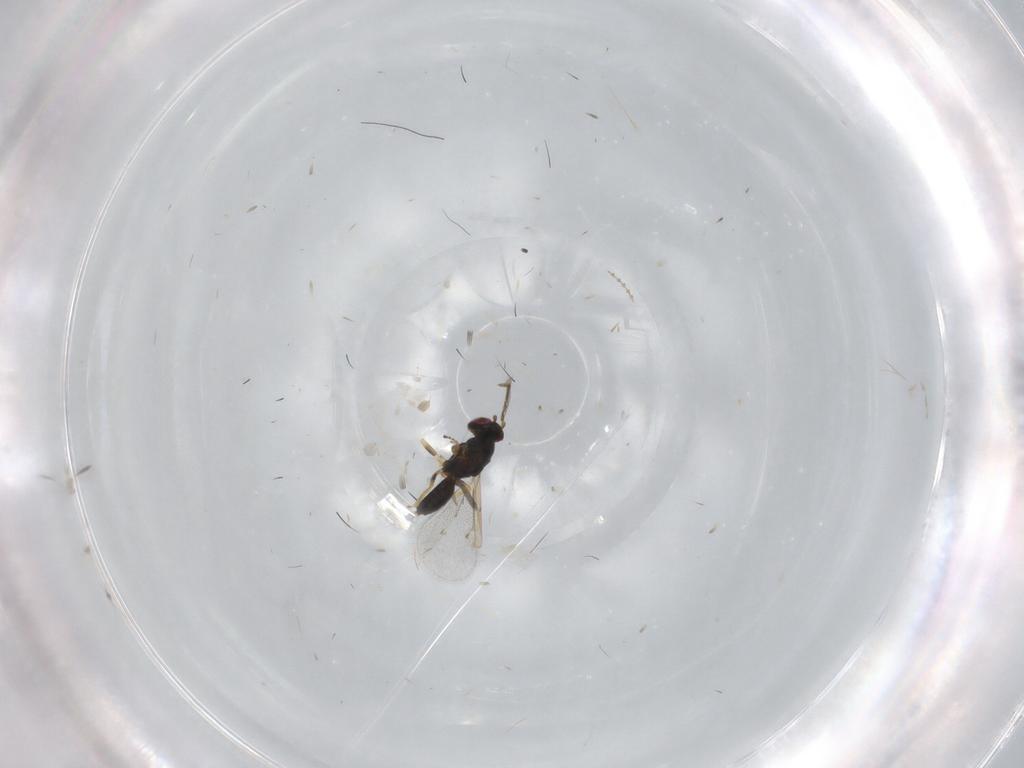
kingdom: Animalia
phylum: Arthropoda
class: Insecta
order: Hymenoptera
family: Eulophidae
